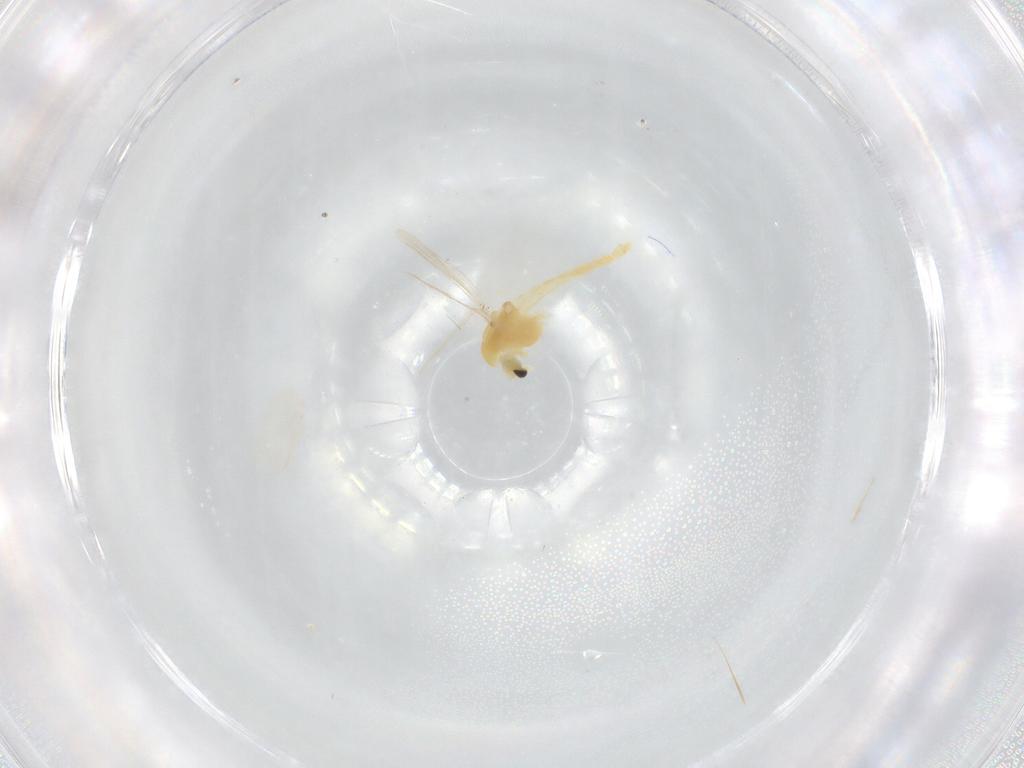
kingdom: Animalia
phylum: Arthropoda
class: Insecta
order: Diptera
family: Chironomidae
